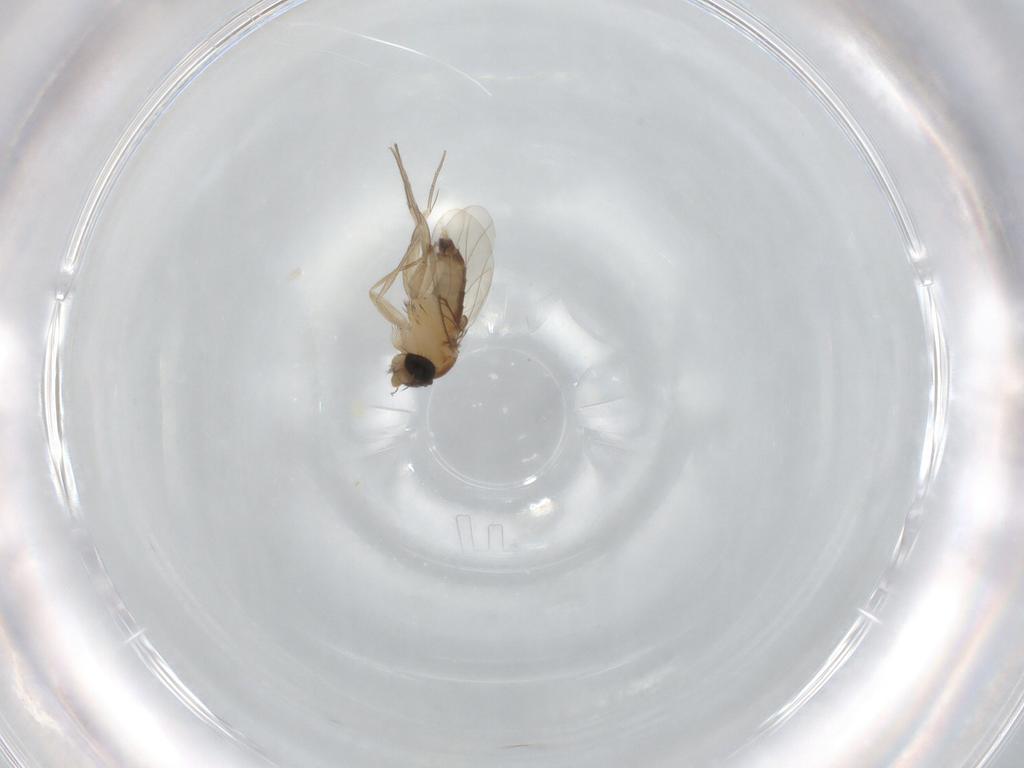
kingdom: Animalia
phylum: Arthropoda
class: Insecta
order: Diptera
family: Phoridae
